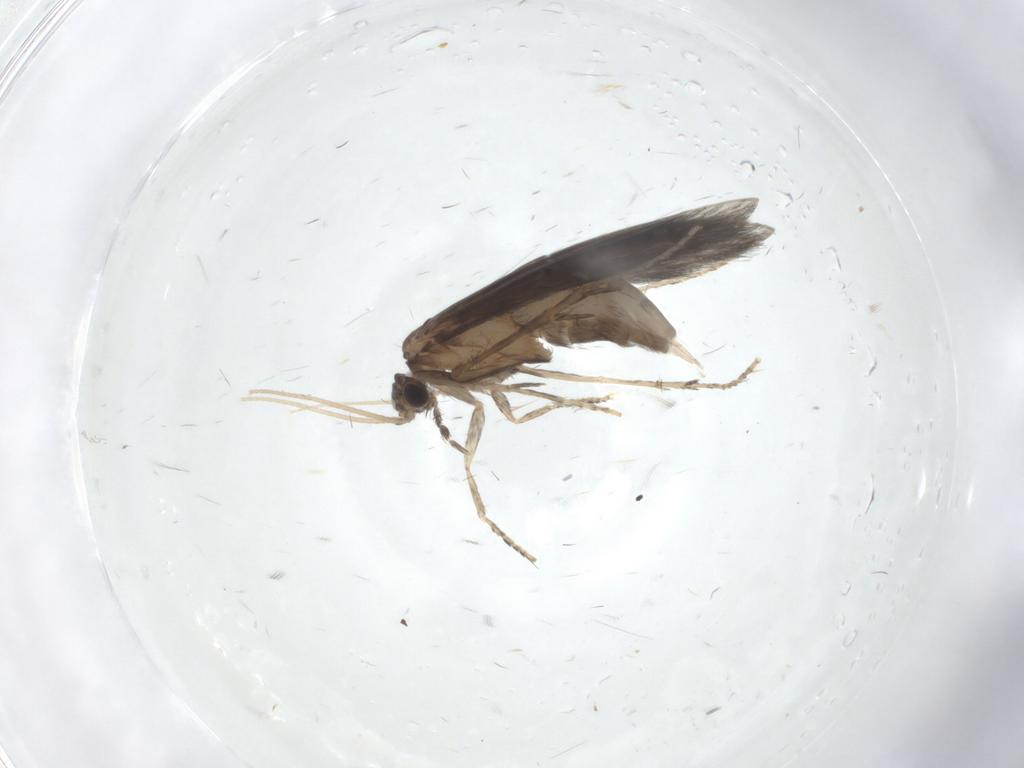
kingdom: Animalia
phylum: Arthropoda
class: Insecta
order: Trichoptera
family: Hydroptilidae
